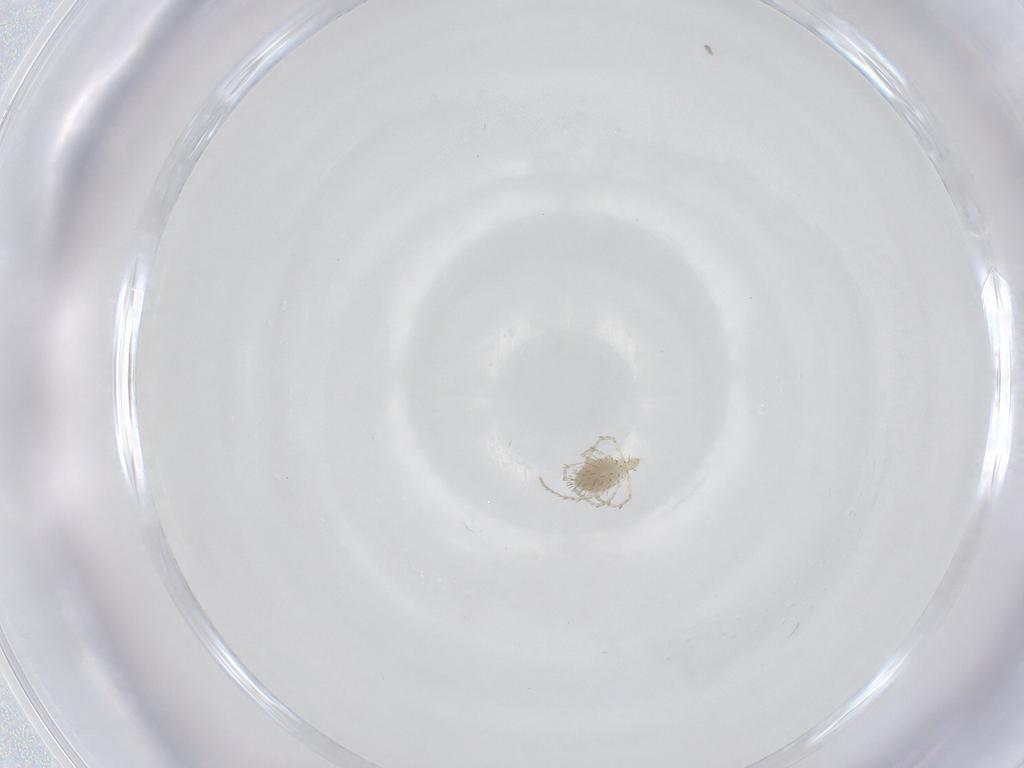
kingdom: Animalia
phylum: Arthropoda
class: Arachnida
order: Trombidiformes
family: Erythraeidae
